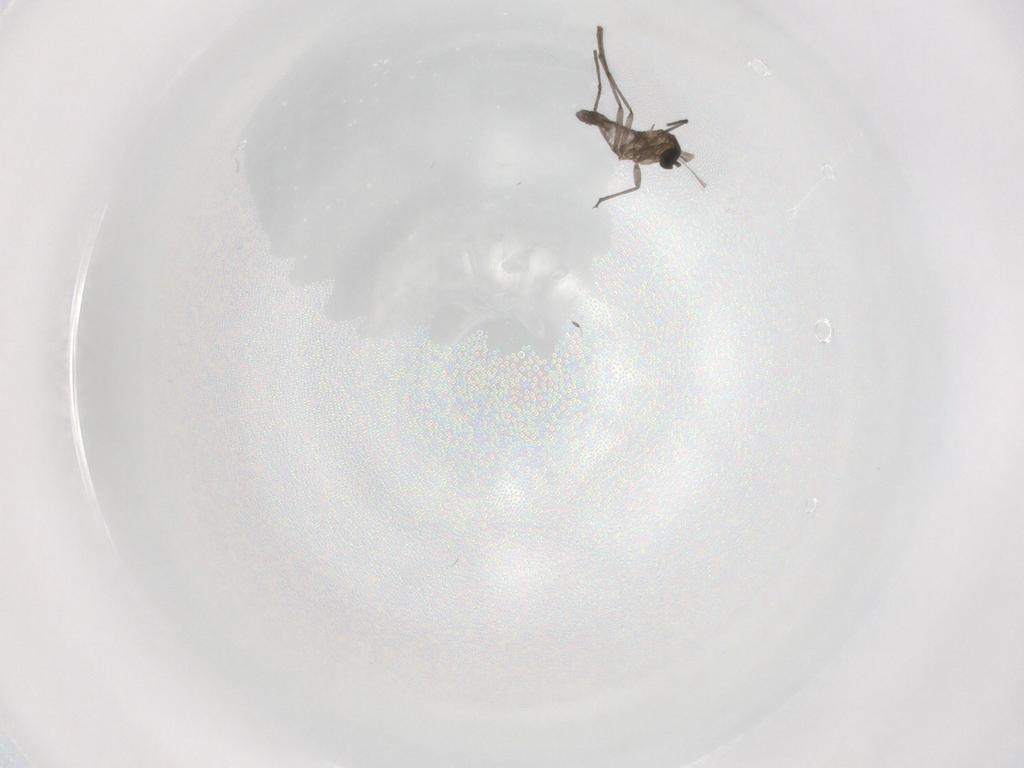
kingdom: Animalia
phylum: Arthropoda
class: Insecta
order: Diptera
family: Sciaridae
